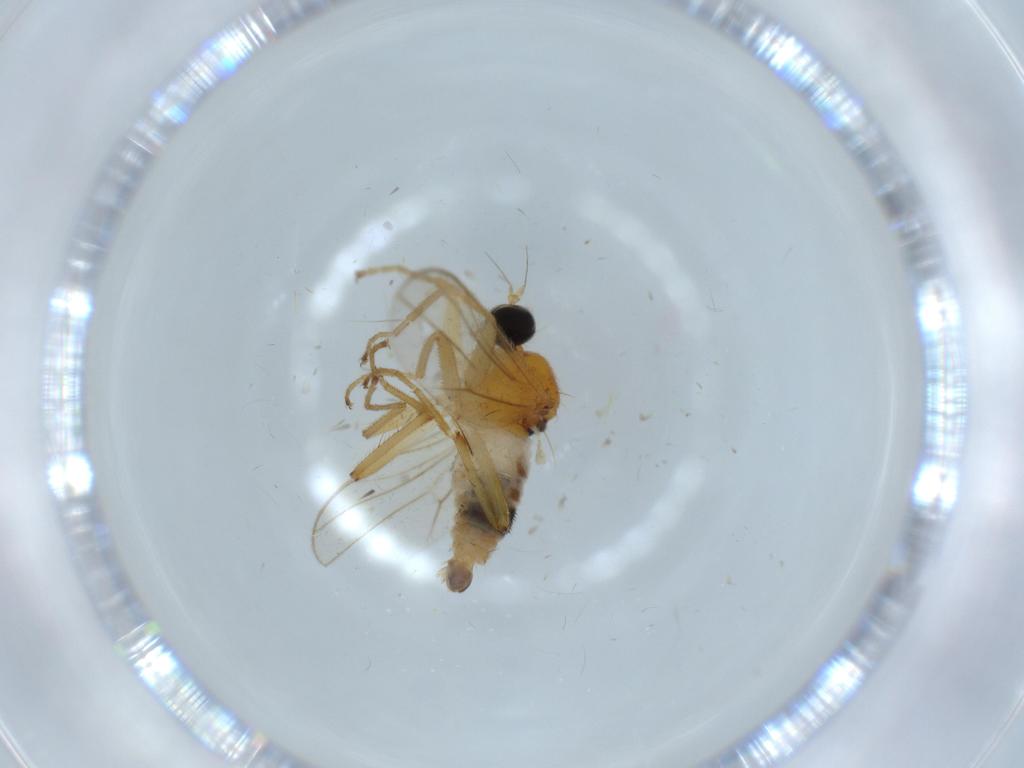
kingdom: Animalia
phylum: Arthropoda
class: Insecta
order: Diptera
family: Hybotidae
